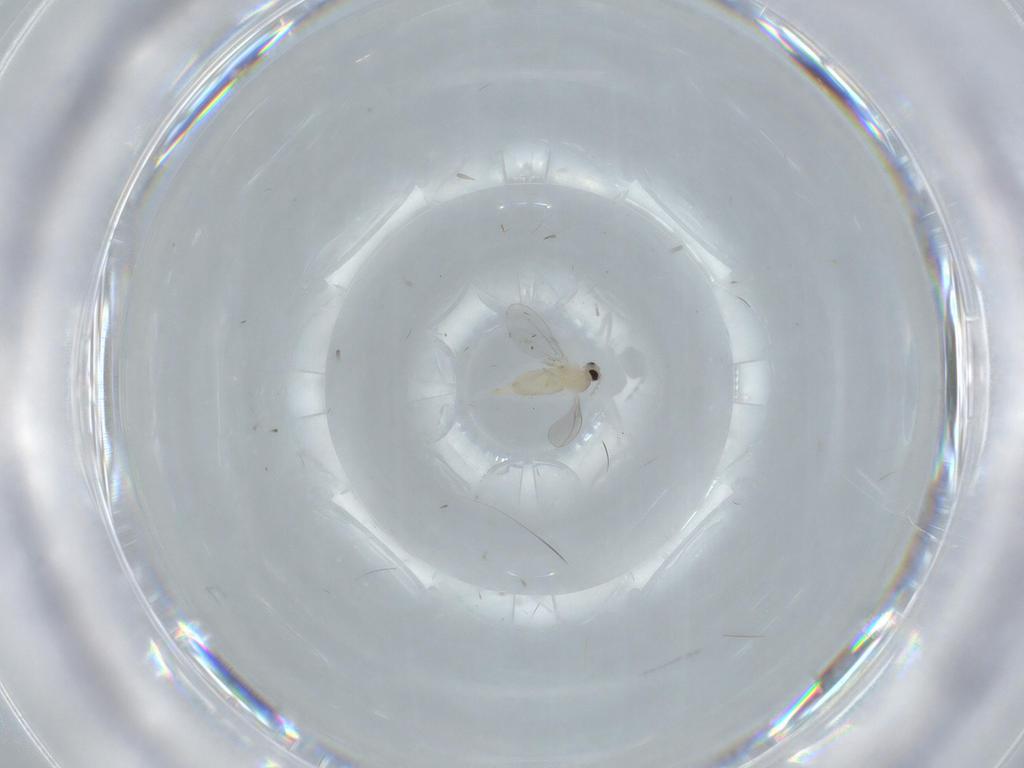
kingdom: Animalia
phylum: Arthropoda
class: Insecta
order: Diptera
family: Cecidomyiidae
